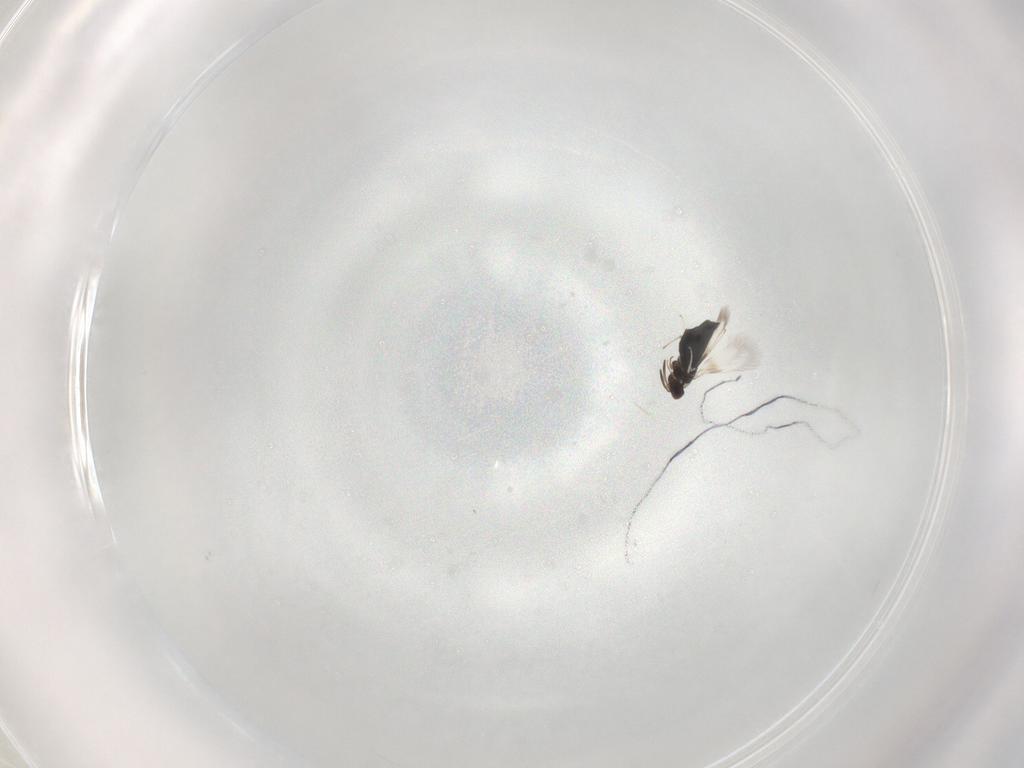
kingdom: Animalia
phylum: Arthropoda
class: Insecta
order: Hymenoptera
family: Signiphoridae
